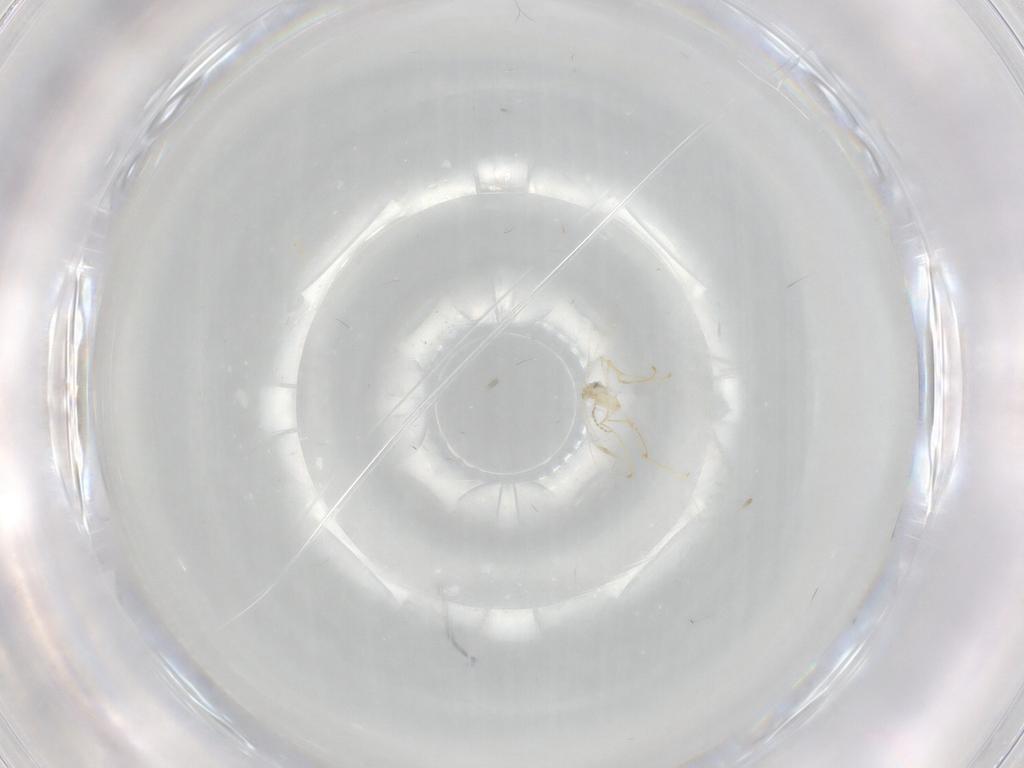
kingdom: Animalia
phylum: Arthropoda
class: Insecta
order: Diptera
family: Cecidomyiidae
